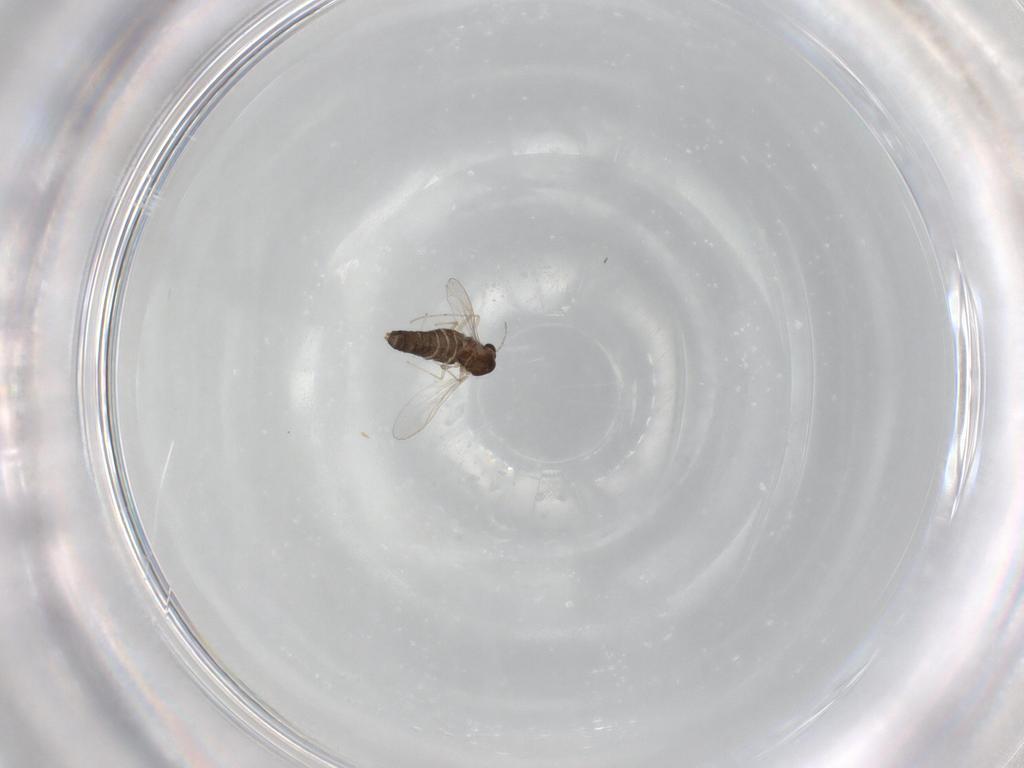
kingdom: Animalia
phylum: Arthropoda
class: Insecta
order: Diptera
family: Chironomidae
